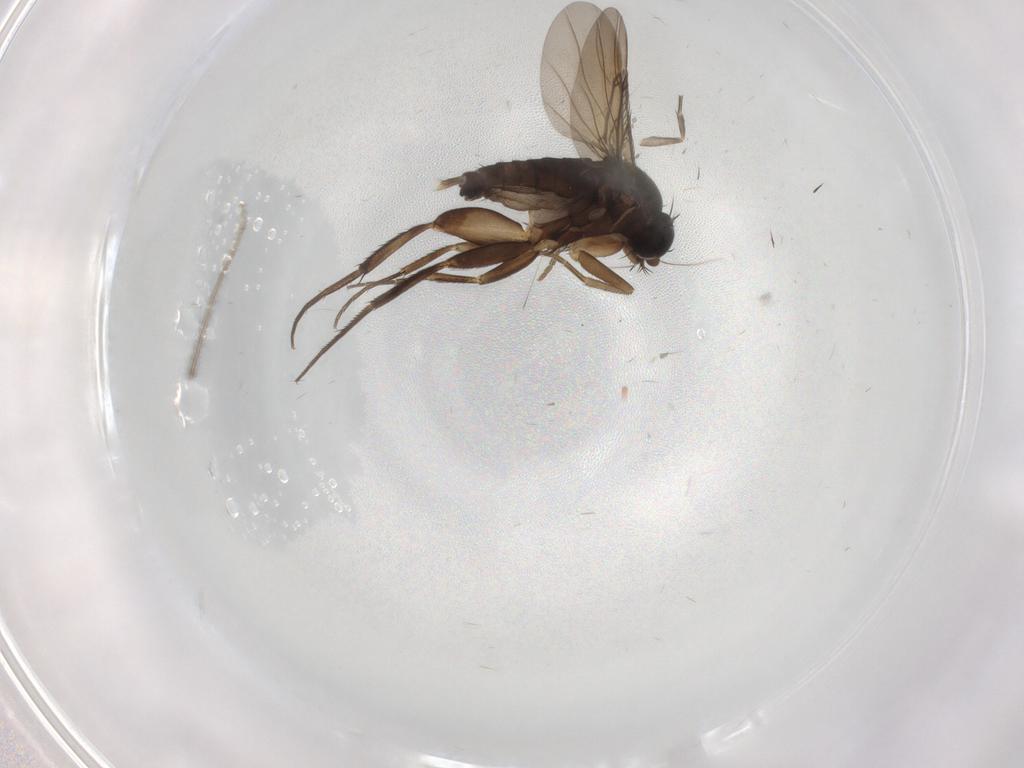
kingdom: Animalia
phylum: Arthropoda
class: Insecta
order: Diptera
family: Phoridae
